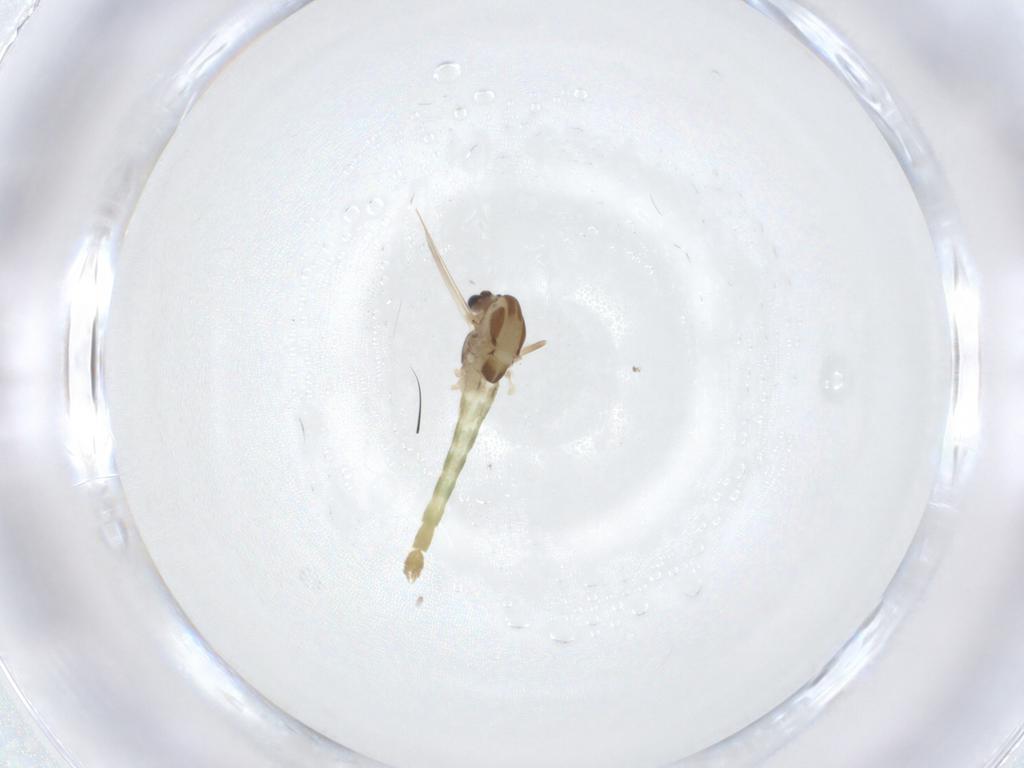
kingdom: Animalia
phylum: Arthropoda
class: Insecta
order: Diptera
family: Chironomidae
